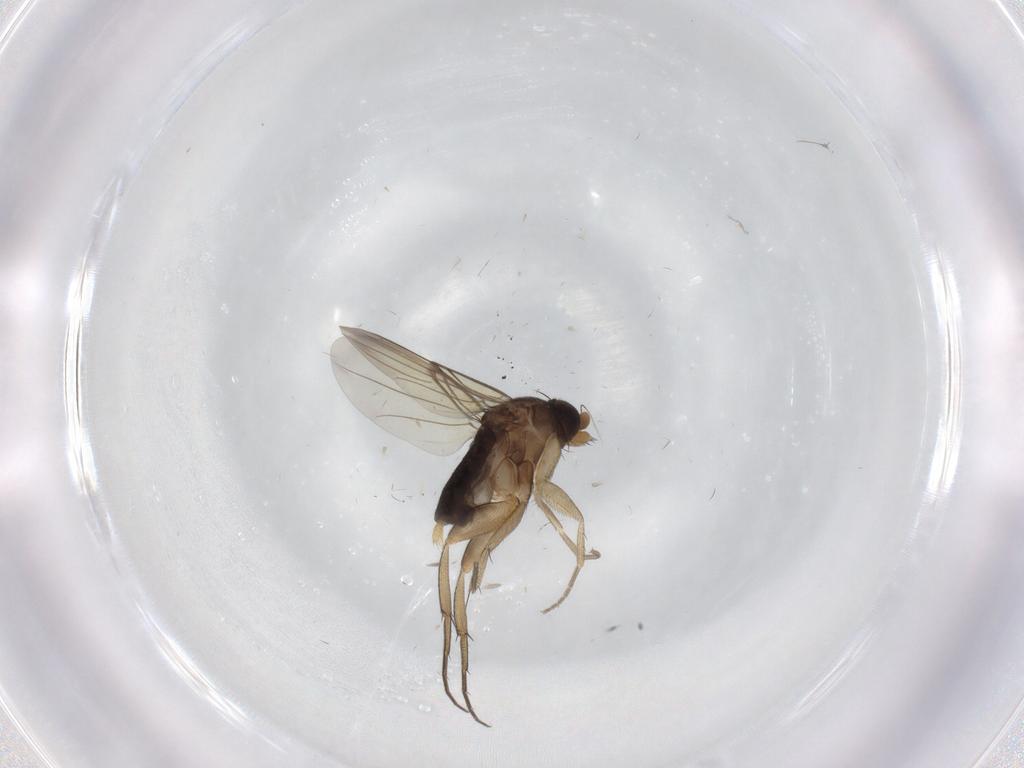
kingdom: Animalia
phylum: Arthropoda
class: Insecta
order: Diptera
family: Phoridae
